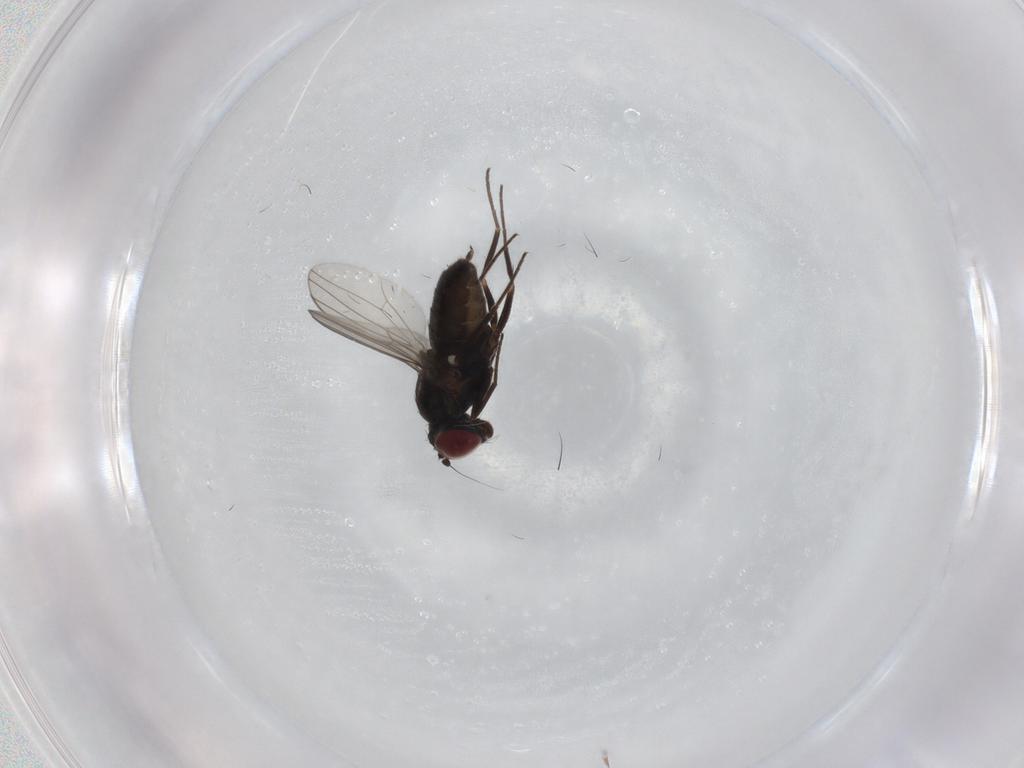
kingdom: Animalia
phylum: Arthropoda
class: Insecta
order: Diptera
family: Dolichopodidae
